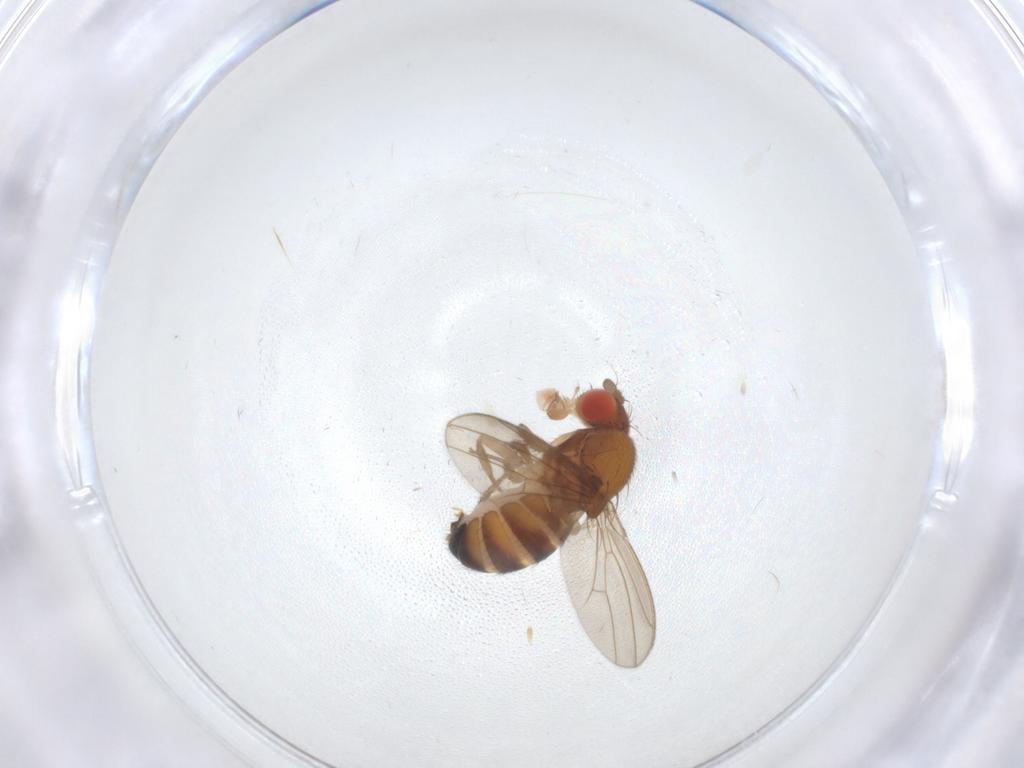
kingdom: Animalia
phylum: Arthropoda
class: Insecta
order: Diptera
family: Drosophilidae
